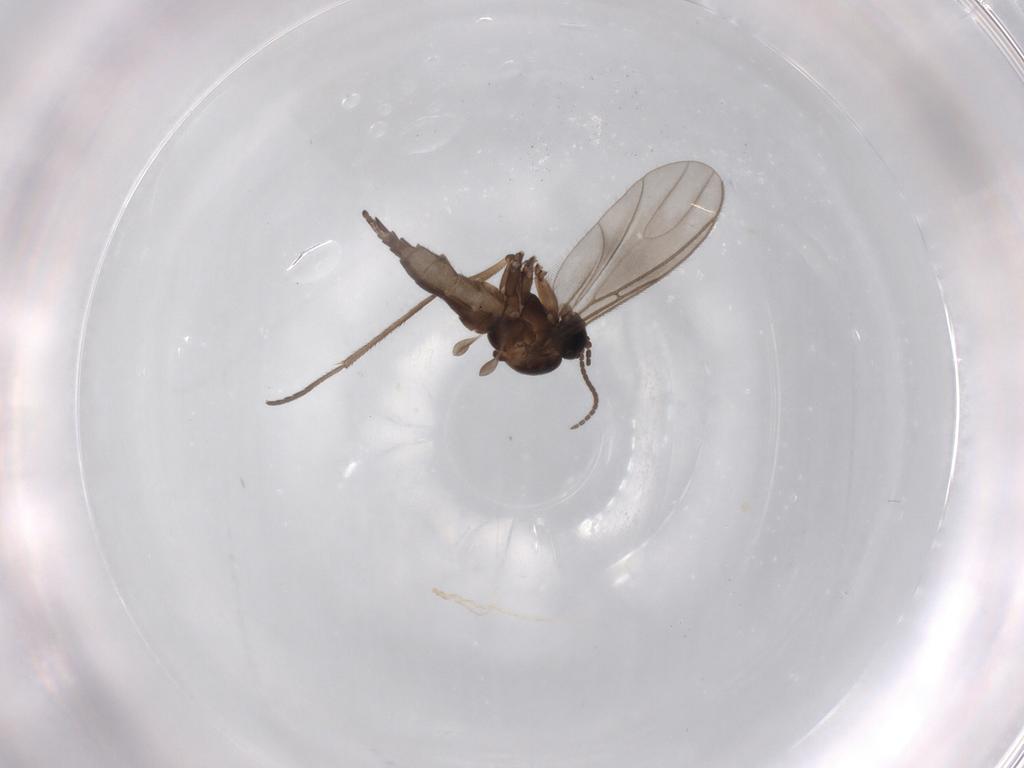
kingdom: Animalia
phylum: Arthropoda
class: Insecta
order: Diptera
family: Sciaridae
